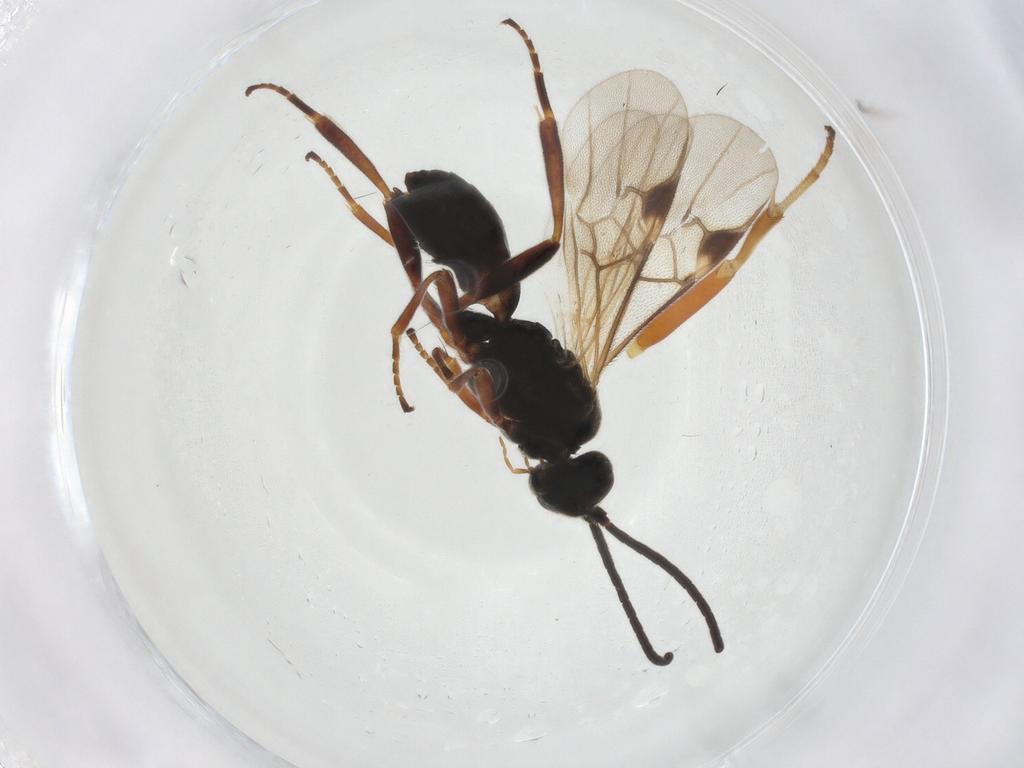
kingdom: Animalia
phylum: Arthropoda
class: Insecta
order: Hymenoptera
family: Braconidae
